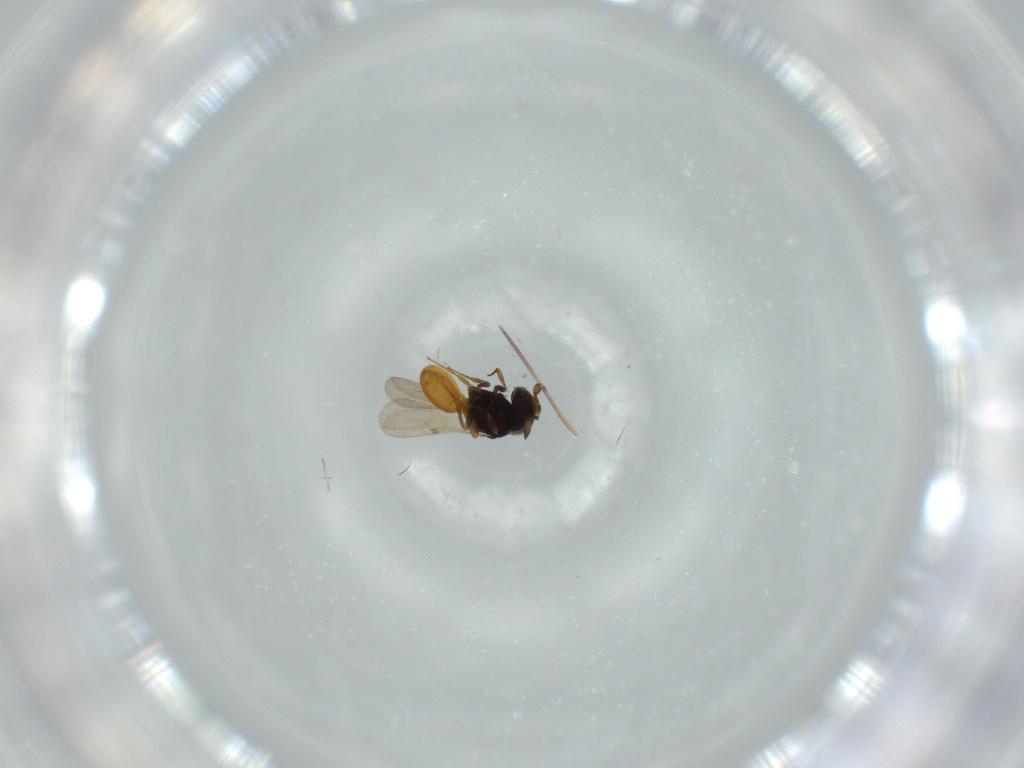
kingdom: Animalia
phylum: Arthropoda
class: Insecta
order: Hymenoptera
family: Scelionidae
